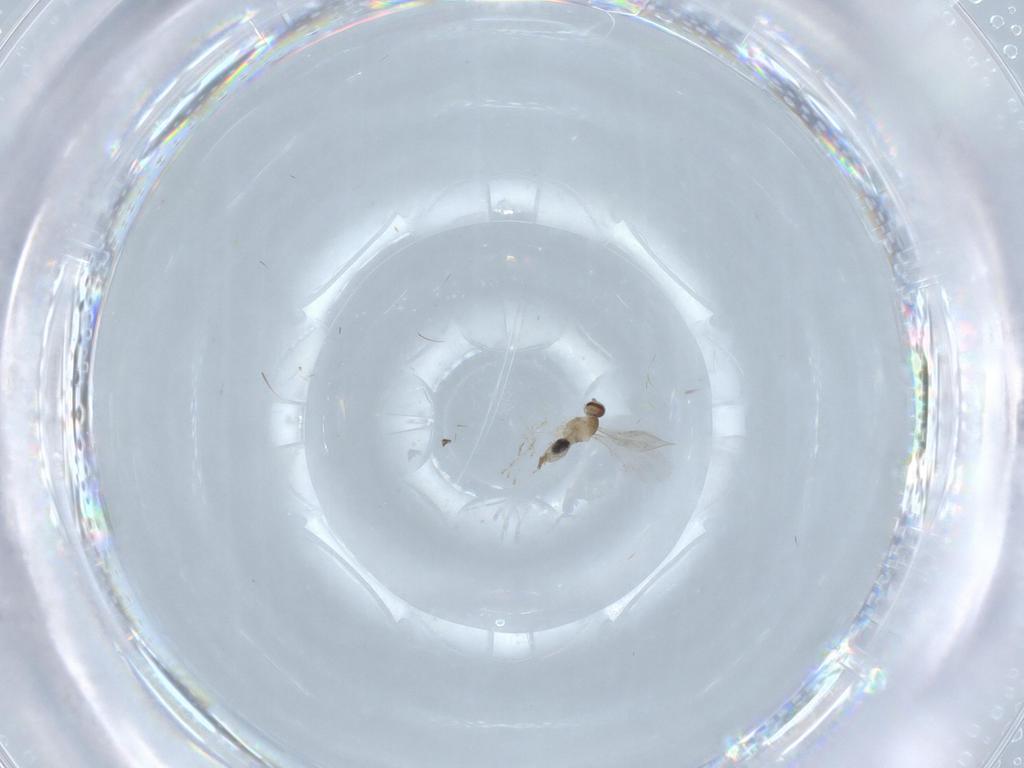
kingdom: Animalia
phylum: Arthropoda
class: Insecta
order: Diptera
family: Cecidomyiidae
